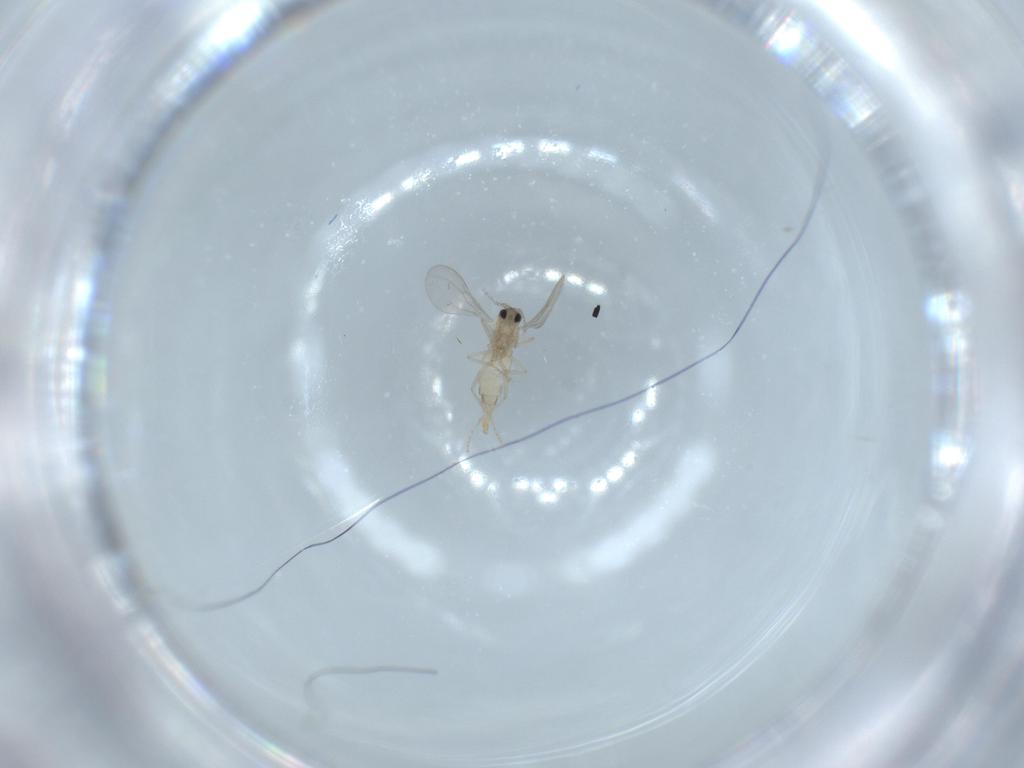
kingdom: Animalia
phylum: Arthropoda
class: Insecta
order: Diptera
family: Cecidomyiidae
